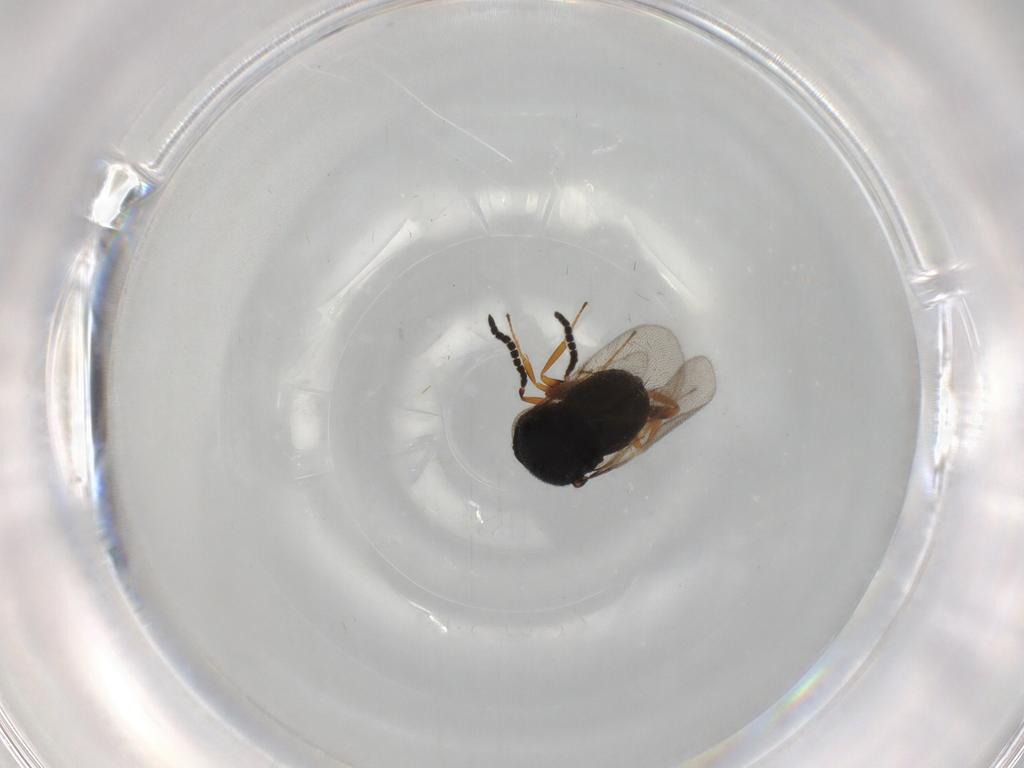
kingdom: Animalia
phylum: Arthropoda
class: Insecta
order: Hymenoptera
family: Scelionidae
